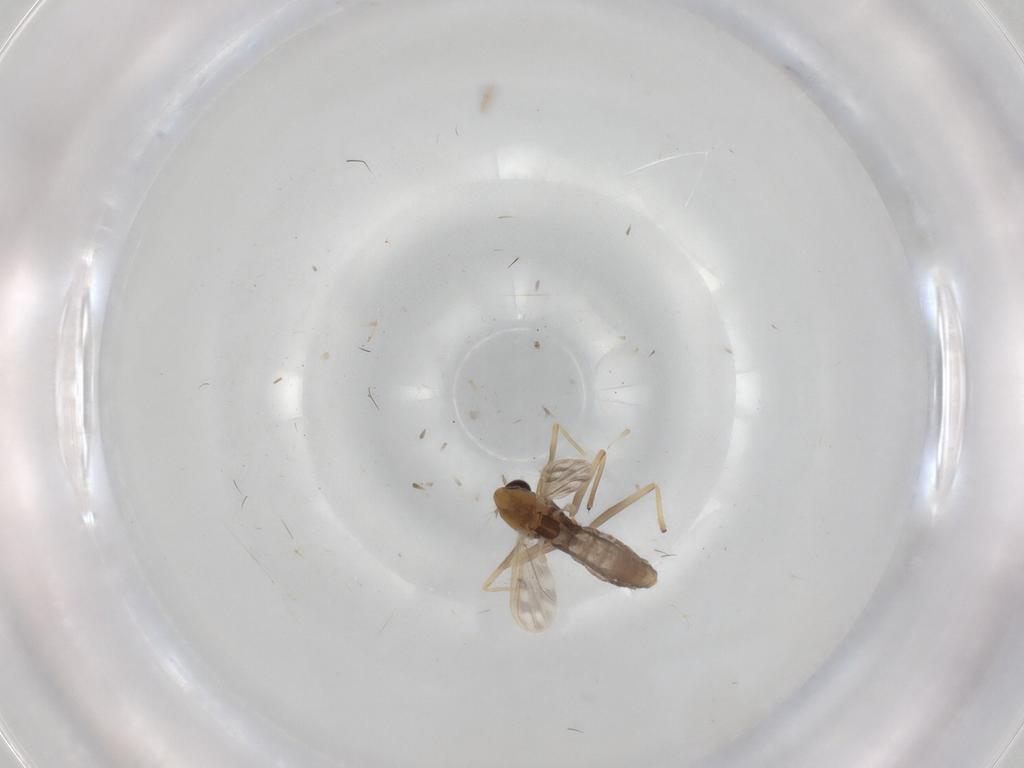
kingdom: Animalia
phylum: Arthropoda
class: Insecta
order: Diptera
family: Chironomidae
